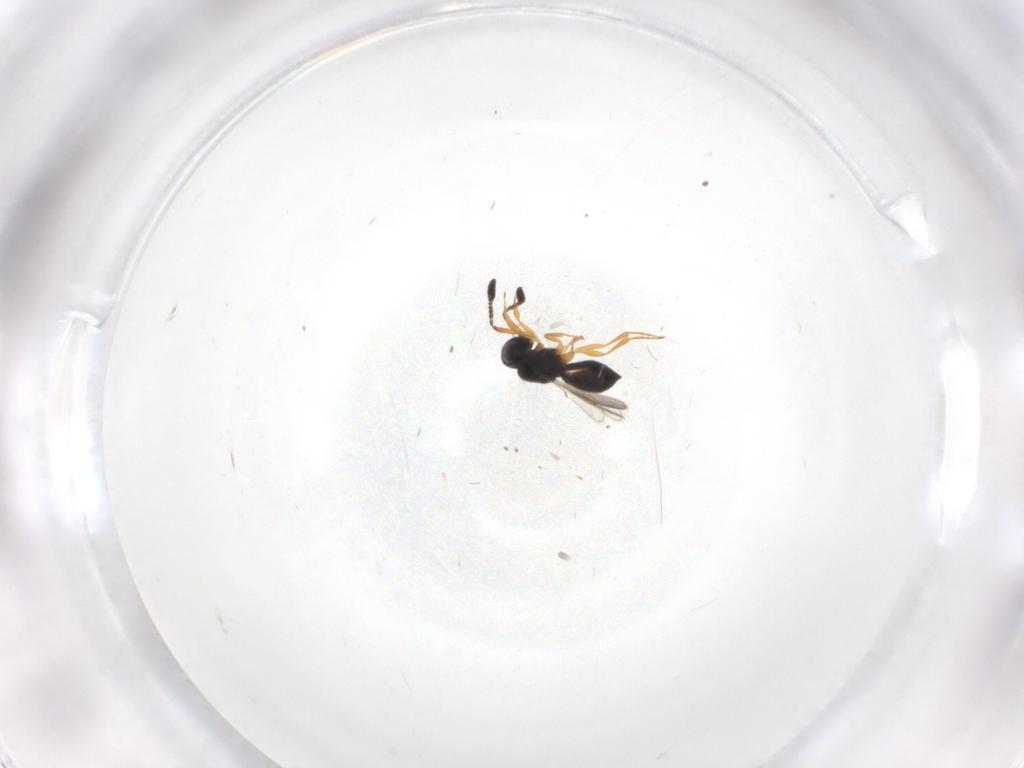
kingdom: Animalia
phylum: Arthropoda
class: Insecta
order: Hymenoptera
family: Scelionidae
